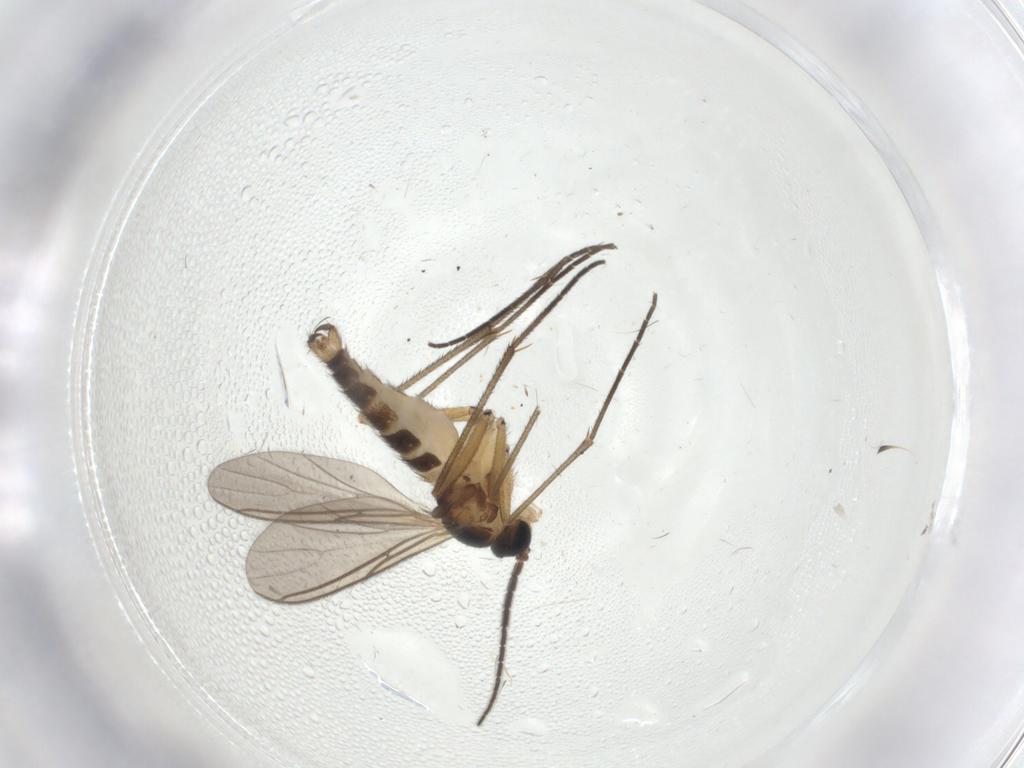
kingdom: Animalia
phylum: Arthropoda
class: Insecta
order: Diptera
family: Sciaridae
